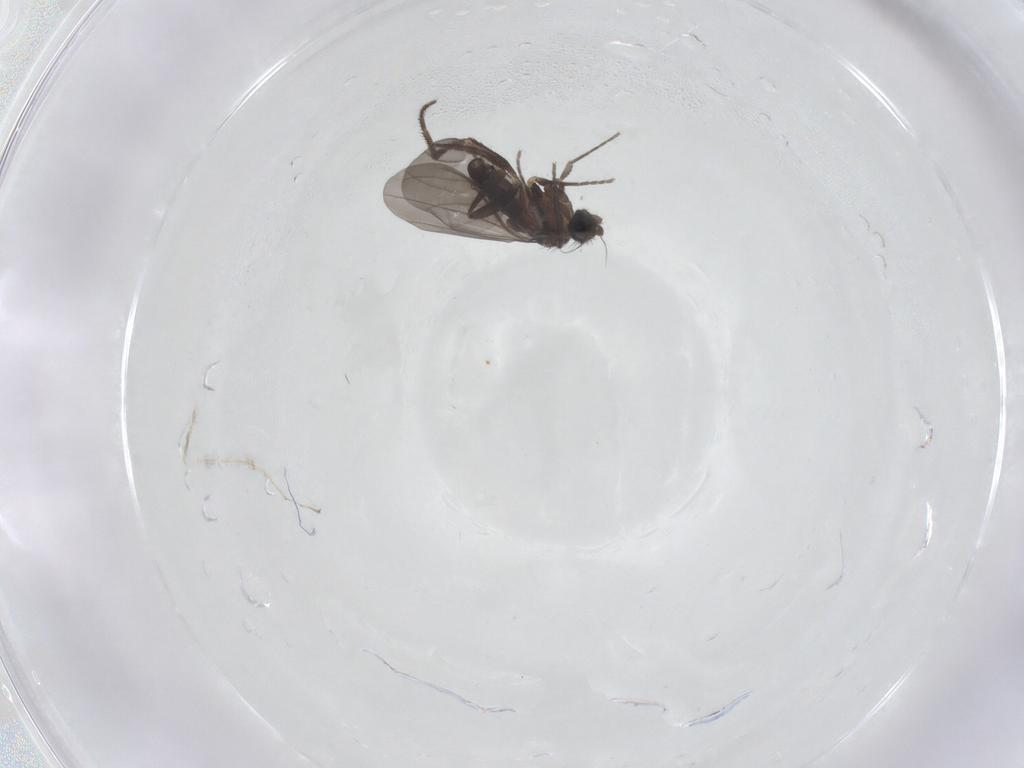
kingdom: Animalia
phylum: Arthropoda
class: Insecta
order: Diptera
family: Phoridae
